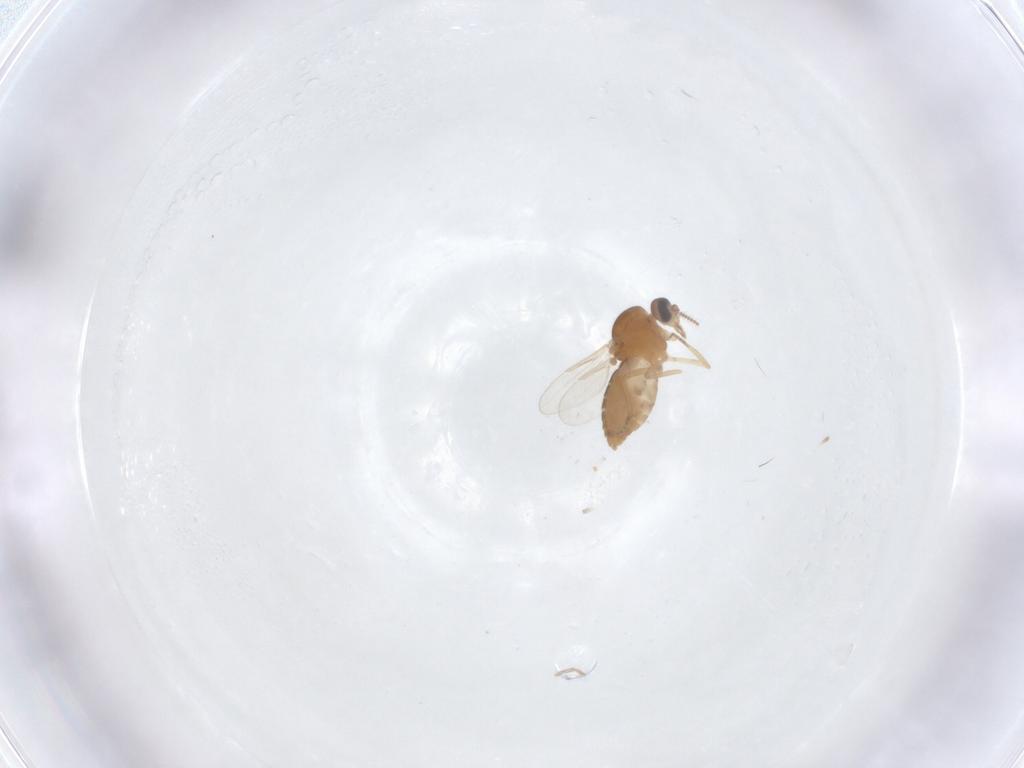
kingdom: Animalia
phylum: Arthropoda
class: Insecta
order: Diptera
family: Ceratopogonidae
